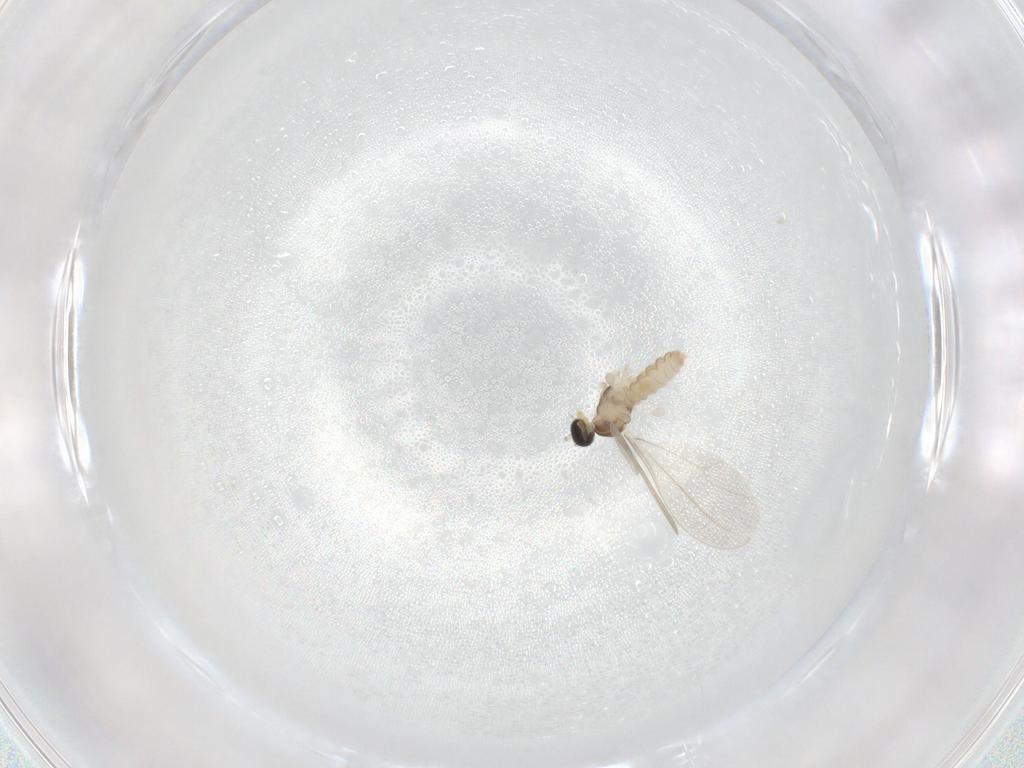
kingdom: Animalia
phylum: Arthropoda
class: Insecta
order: Diptera
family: Cecidomyiidae
